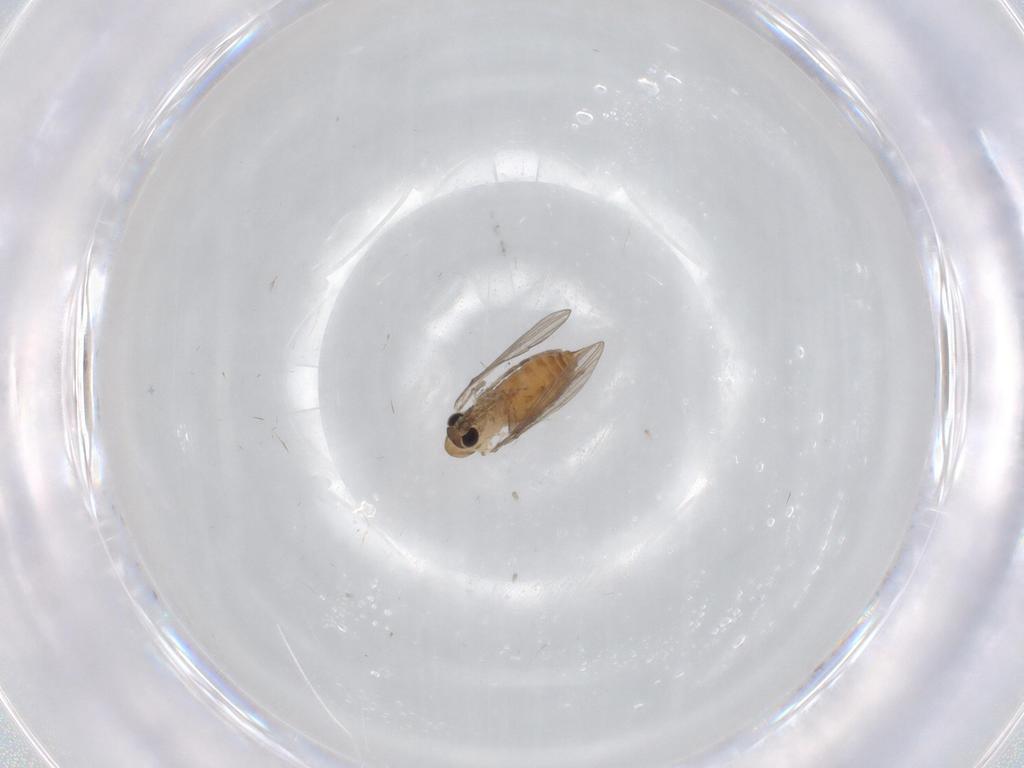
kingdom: Animalia
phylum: Arthropoda
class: Insecta
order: Diptera
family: Psychodidae
